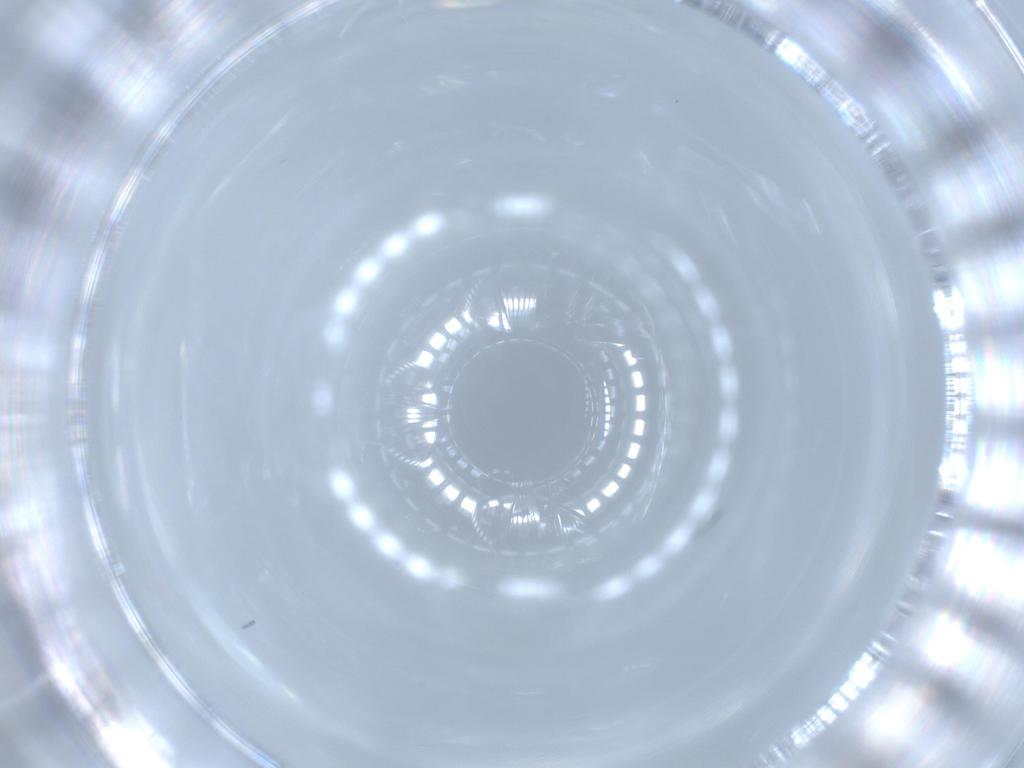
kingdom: Animalia
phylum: Arthropoda
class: Insecta
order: Diptera
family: Cecidomyiidae
